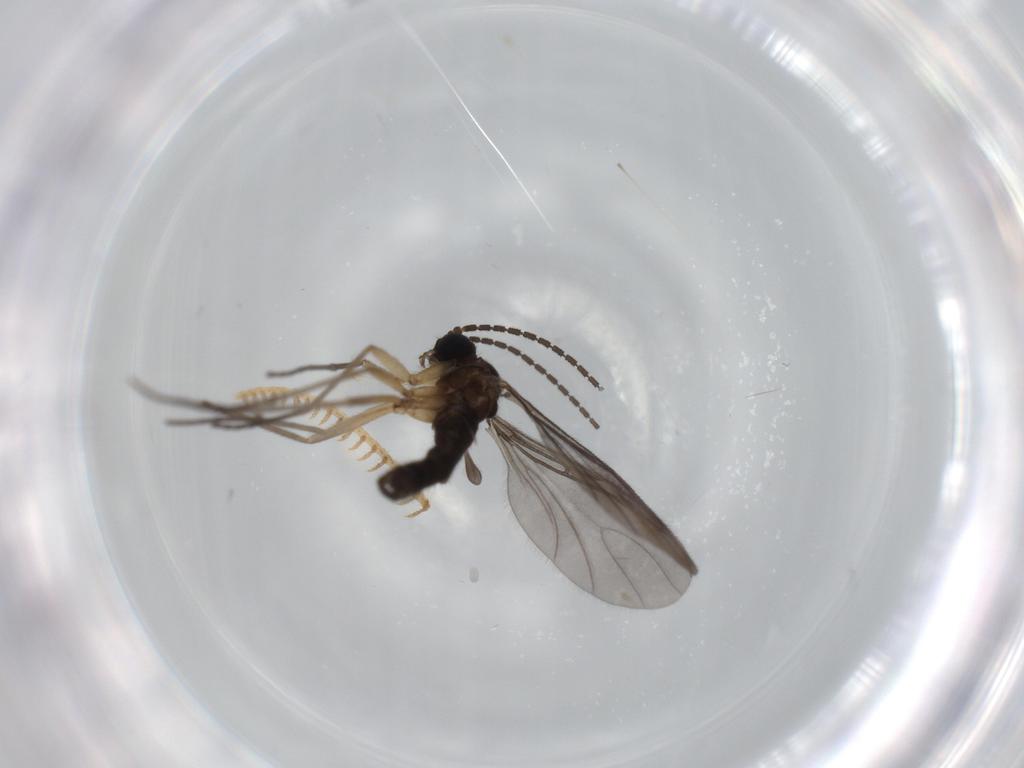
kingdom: Animalia
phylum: Arthropoda
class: Insecta
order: Diptera
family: Sciaridae
